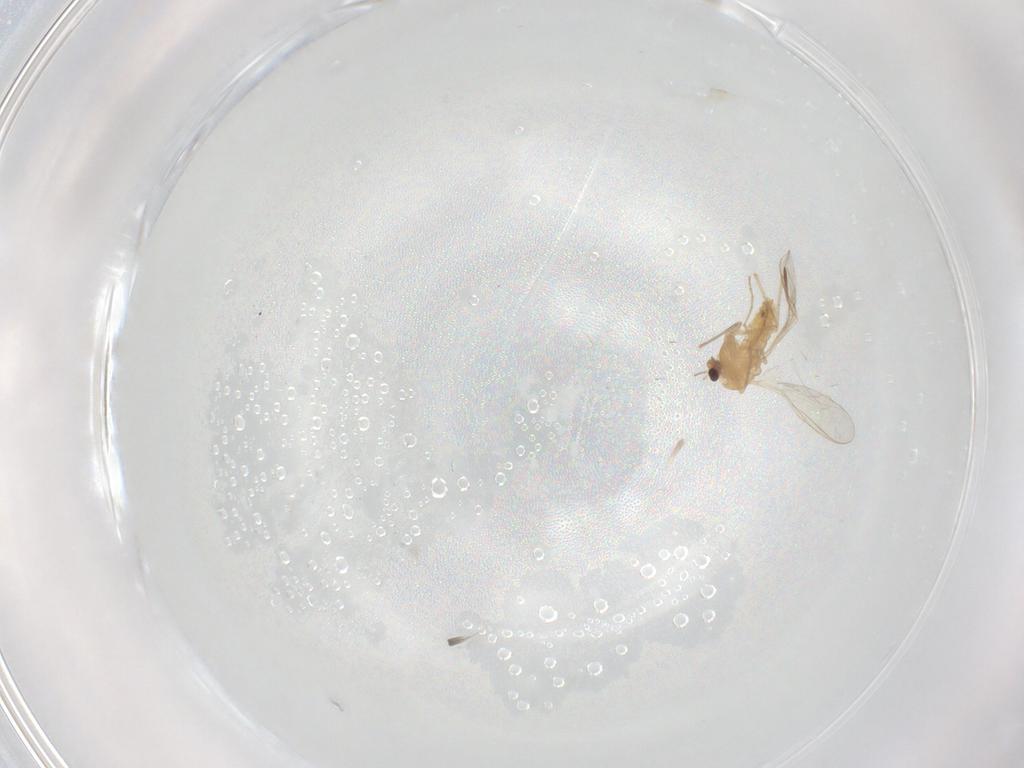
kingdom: Animalia
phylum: Arthropoda
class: Insecta
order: Diptera
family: Chironomidae
